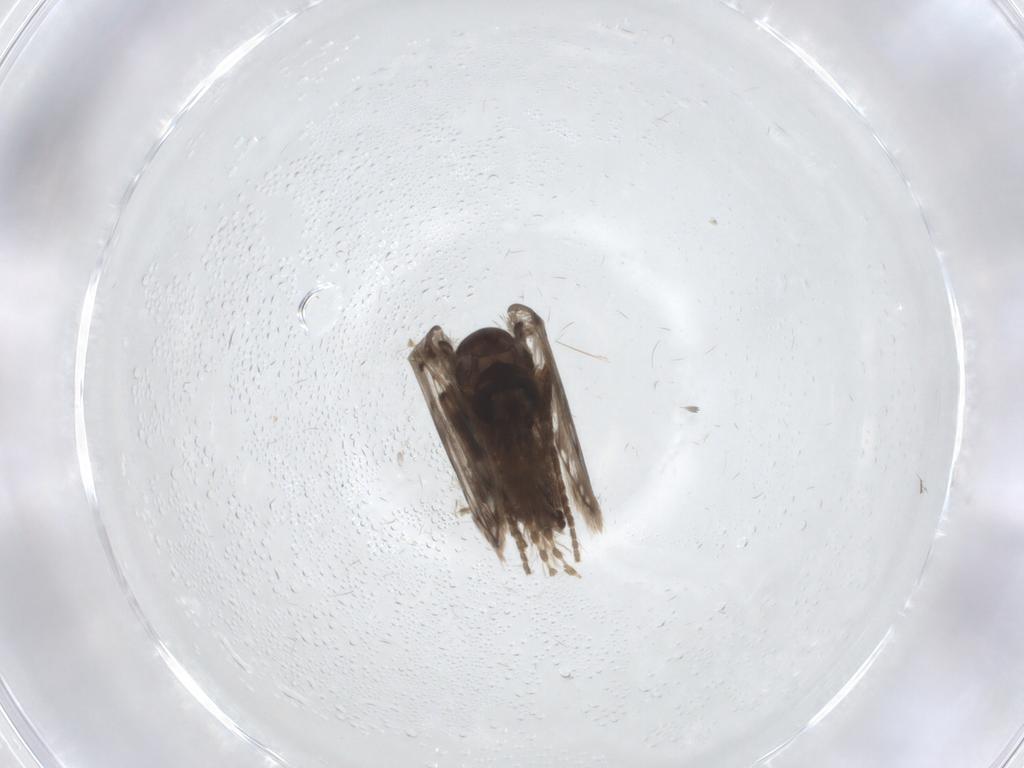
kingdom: Animalia
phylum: Arthropoda
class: Insecta
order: Diptera
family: Psychodidae
